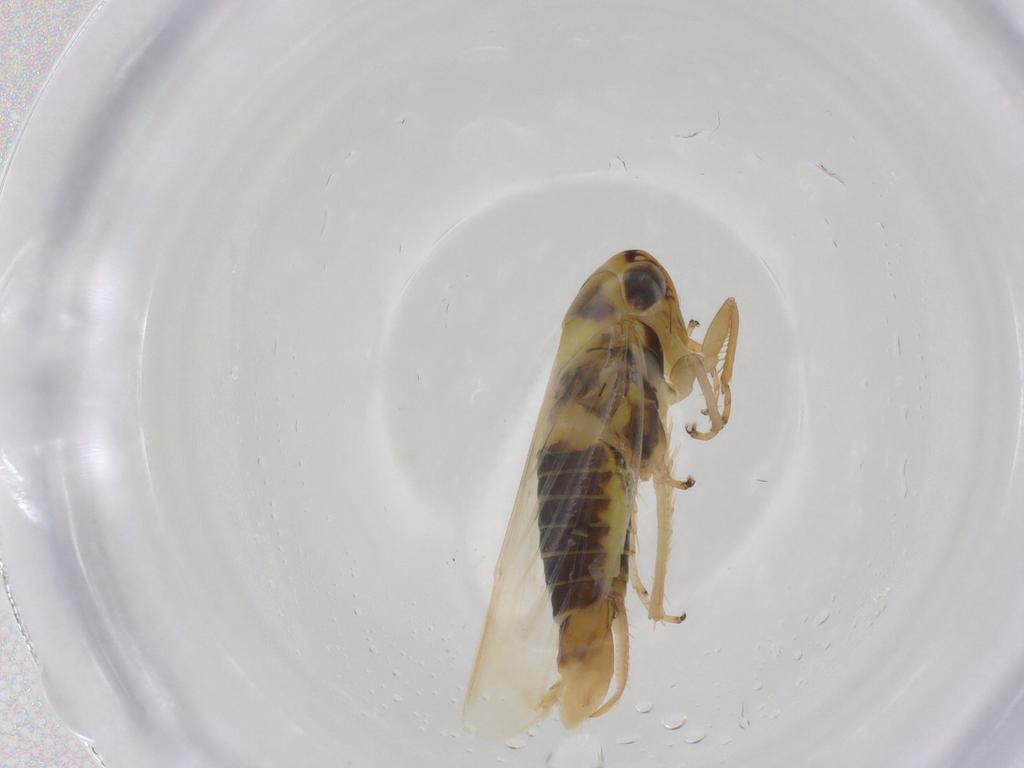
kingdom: Animalia
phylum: Arthropoda
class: Insecta
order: Hemiptera
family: Cicadellidae
